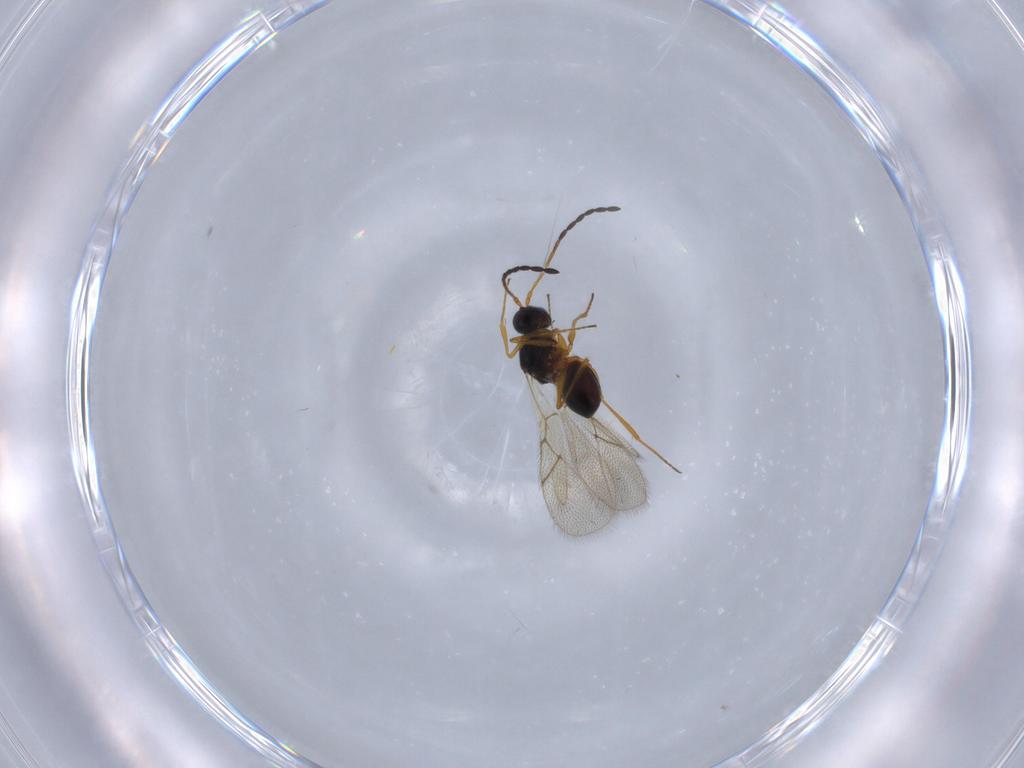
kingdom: Animalia
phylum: Arthropoda
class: Insecta
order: Hymenoptera
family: Figitidae
